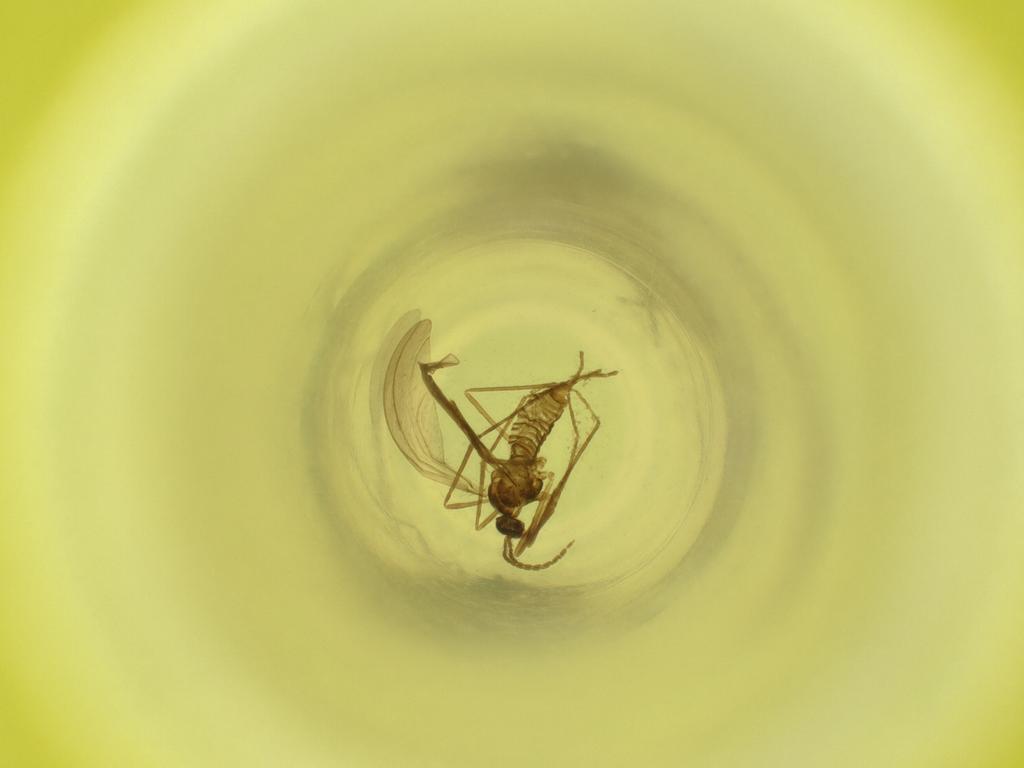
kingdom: Animalia
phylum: Arthropoda
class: Insecta
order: Diptera
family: Cecidomyiidae
